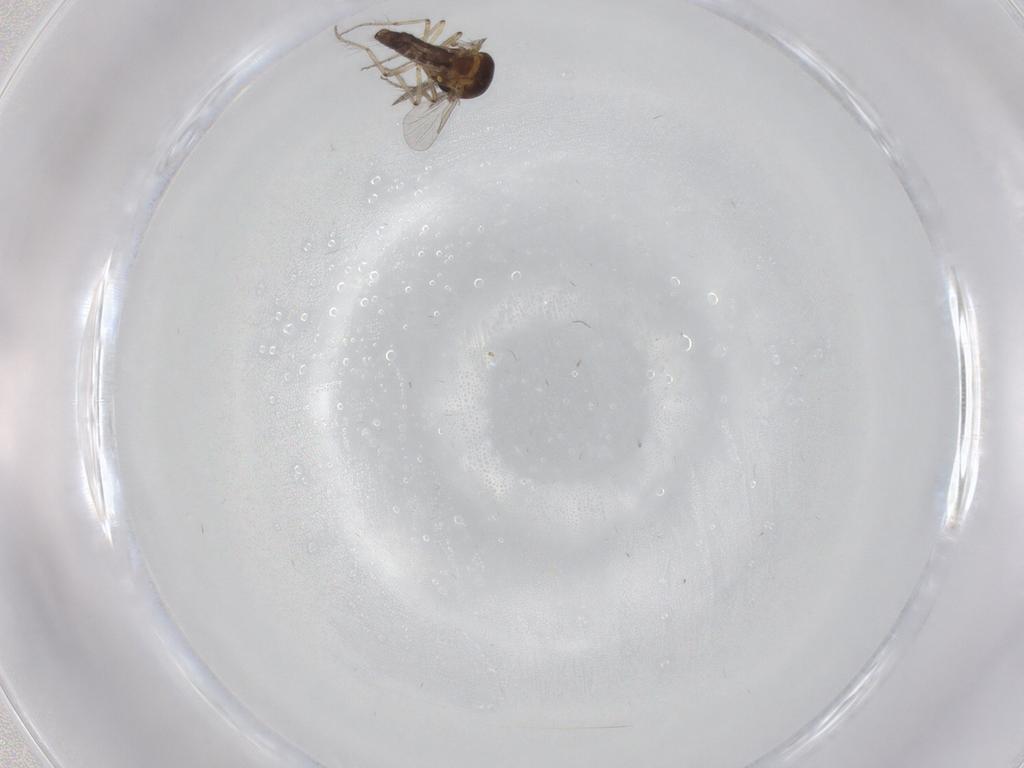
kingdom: Animalia
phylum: Arthropoda
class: Insecta
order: Diptera
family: Ceratopogonidae
